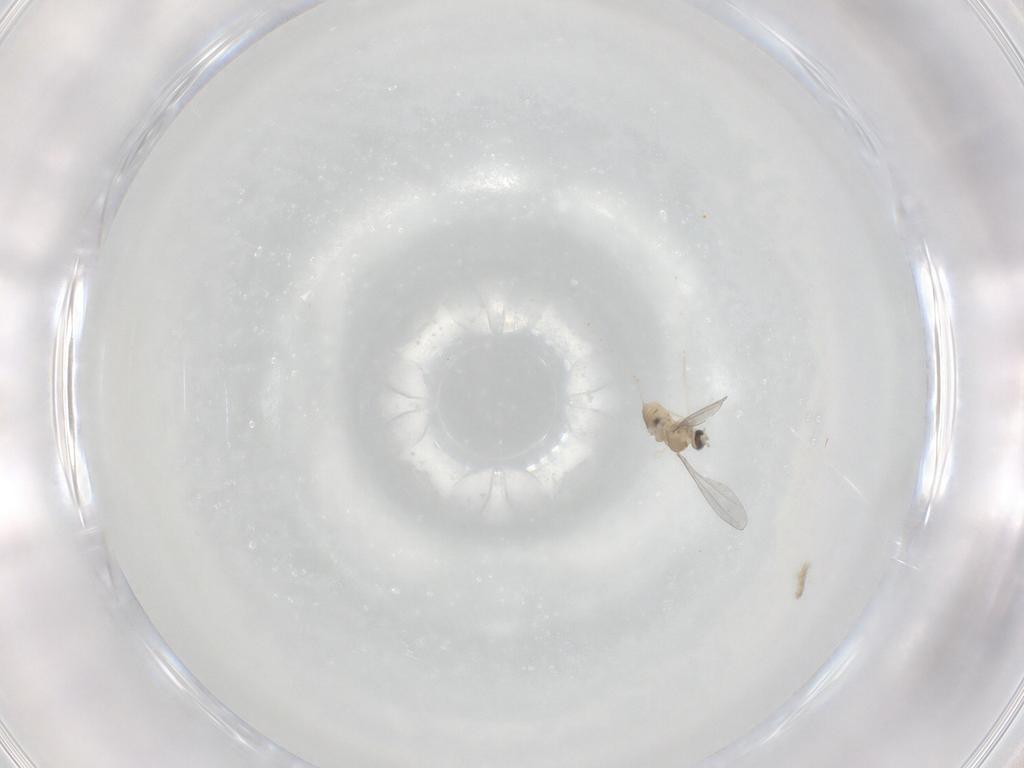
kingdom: Animalia
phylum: Arthropoda
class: Insecta
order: Diptera
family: Cecidomyiidae
